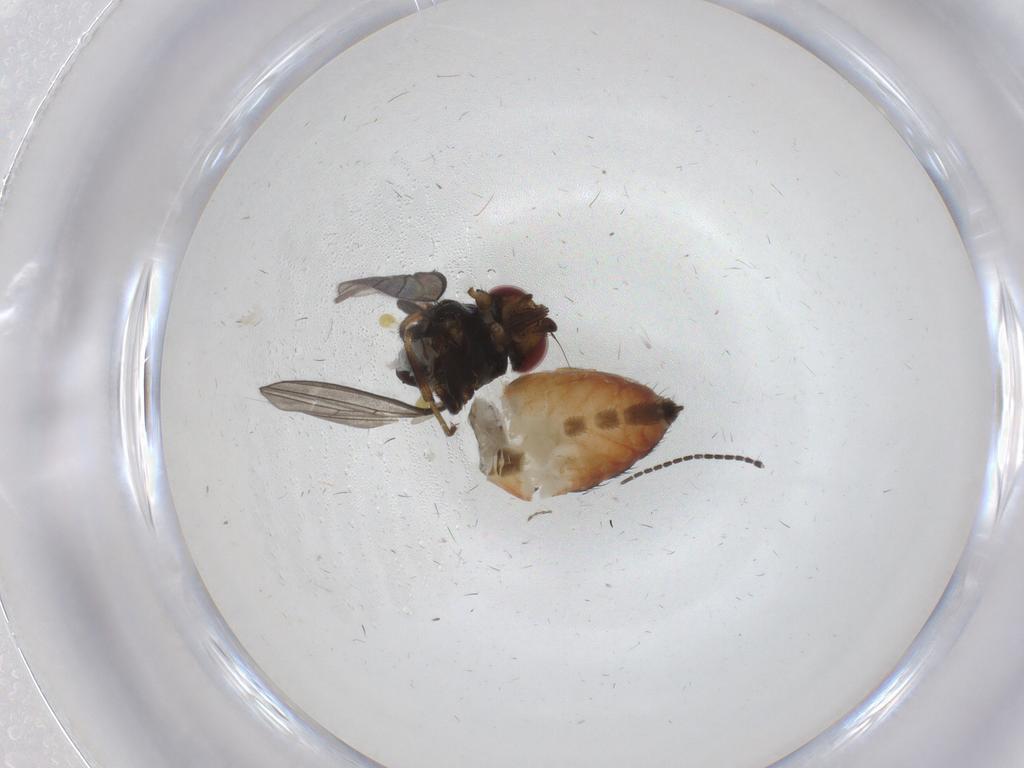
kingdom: Animalia
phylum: Arthropoda
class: Insecta
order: Diptera
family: Milichiidae
